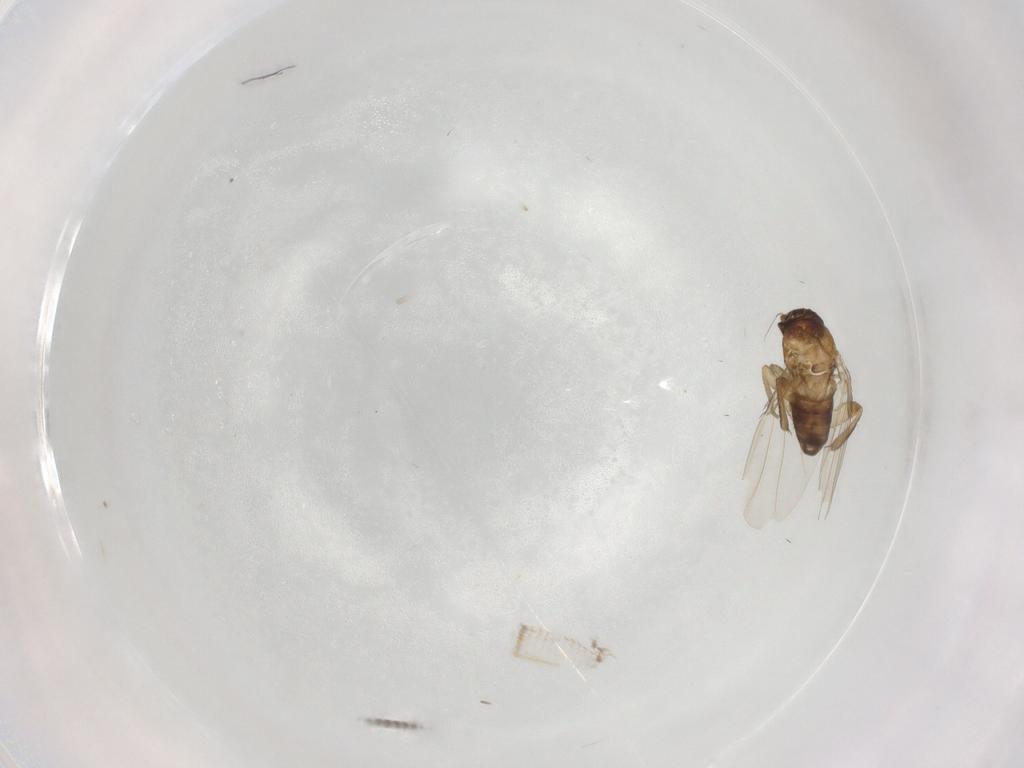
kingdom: Animalia
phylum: Arthropoda
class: Insecta
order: Diptera
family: Phoridae
